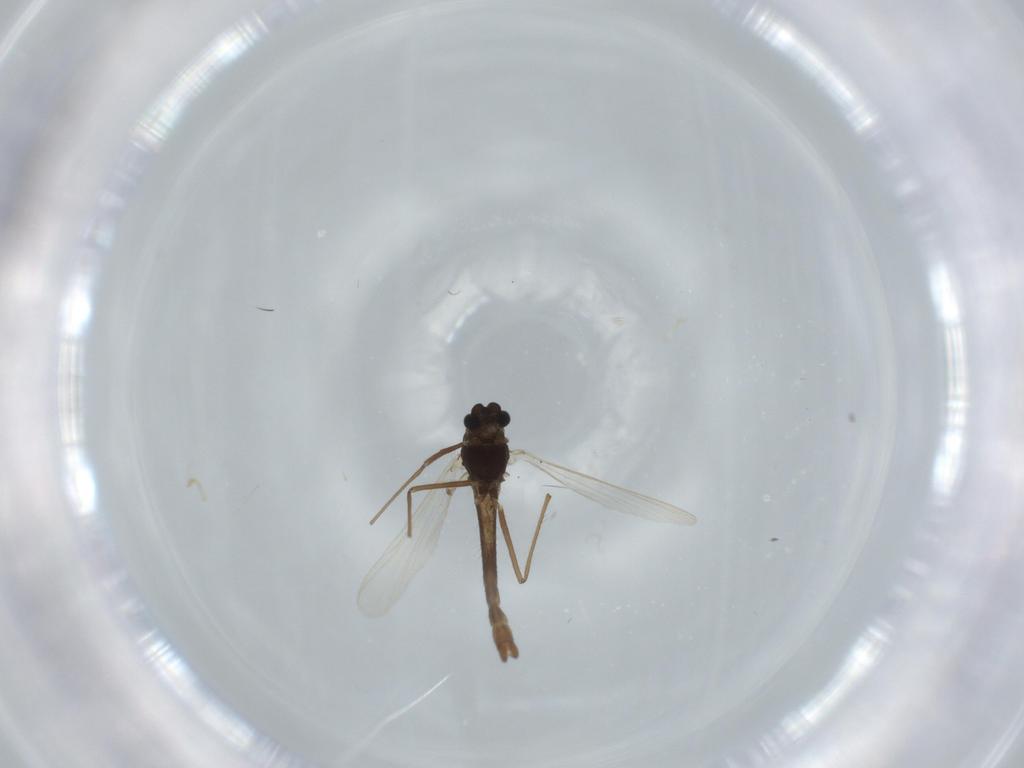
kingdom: Animalia
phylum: Arthropoda
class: Insecta
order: Diptera
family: Chironomidae
